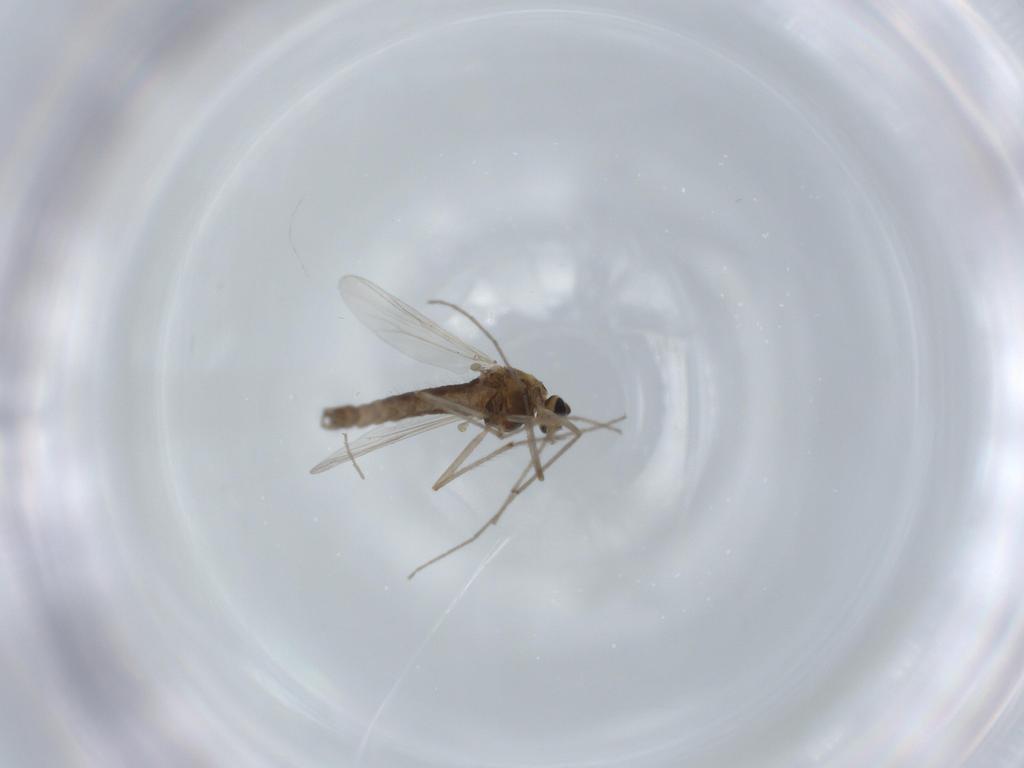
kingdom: Animalia
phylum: Arthropoda
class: Insecta
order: Diptera
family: Chironomidae
